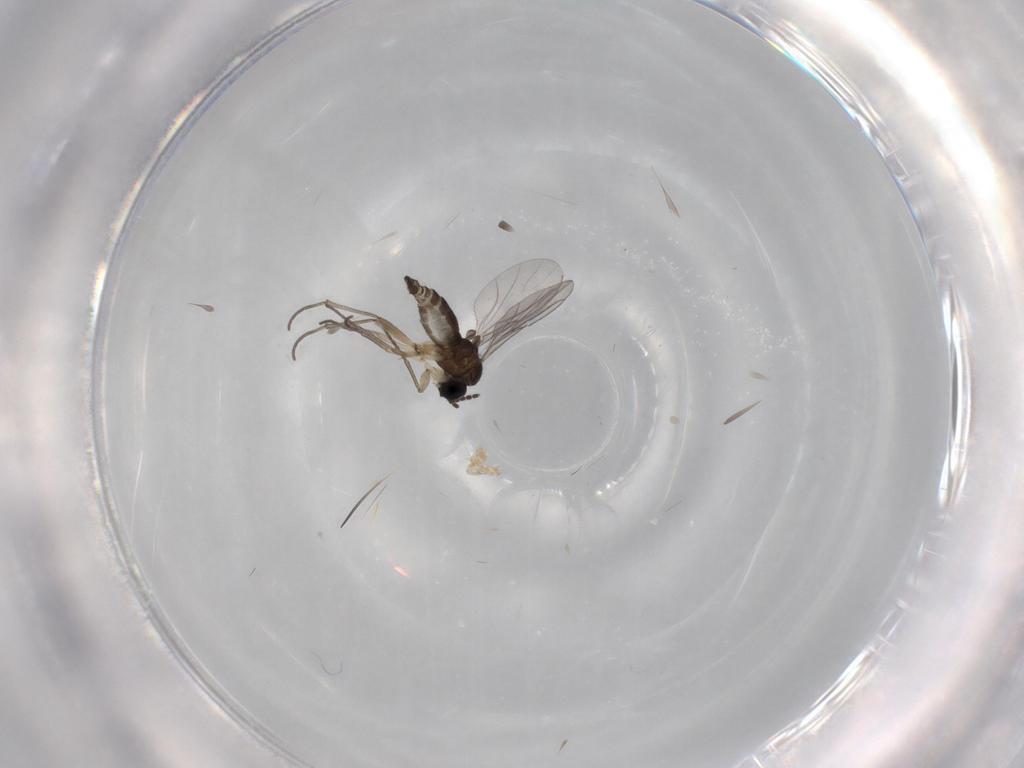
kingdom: Animalia
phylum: Arthropoda
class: Insecta
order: Diptera
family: Sciaridae
